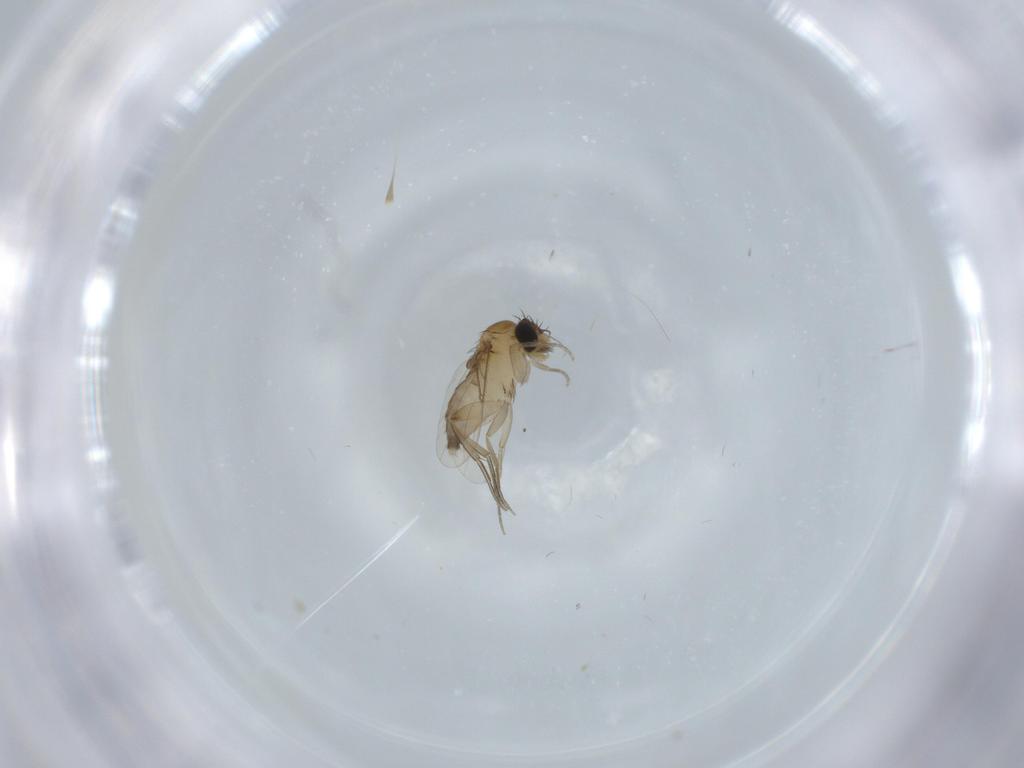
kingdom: Animalia
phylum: Arthropoda
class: Insecta
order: Diptera
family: Phoridae
